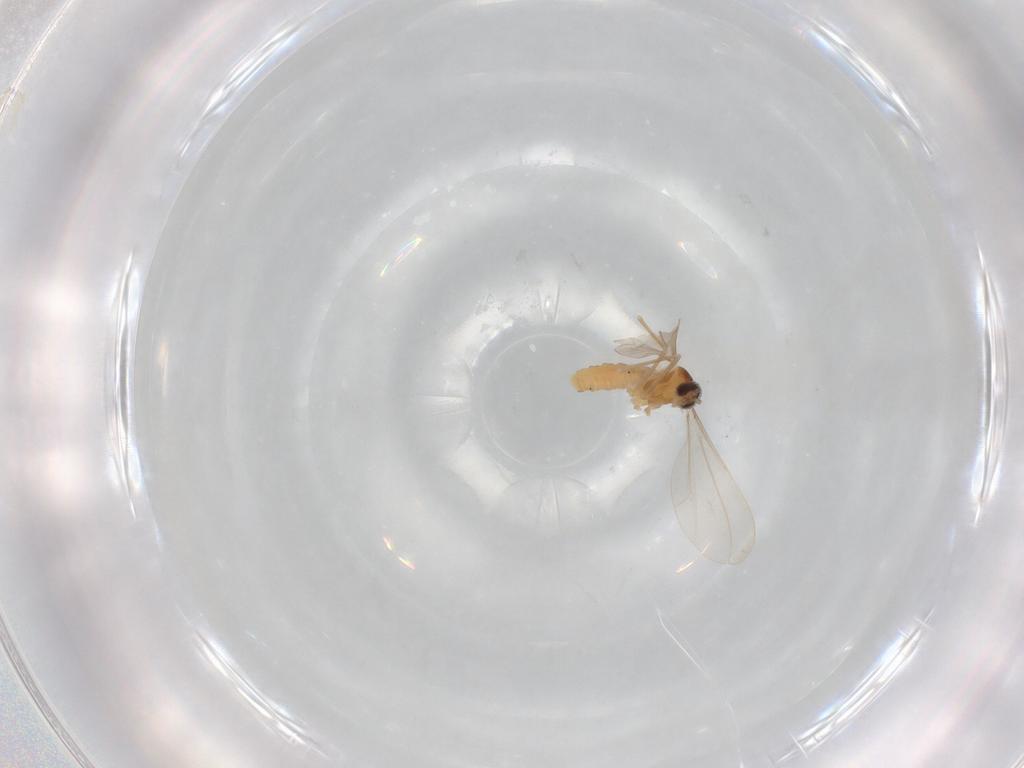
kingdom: Animalia
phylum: Arthropoda
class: Insecta
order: Diptera
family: Cecidomyiidae
